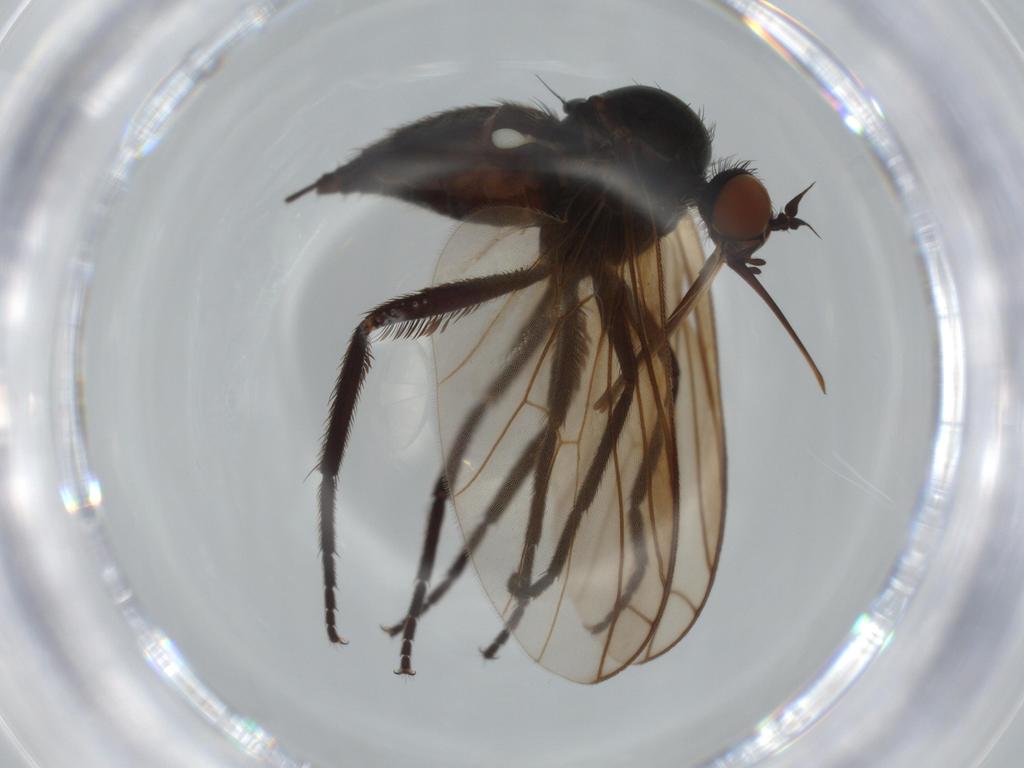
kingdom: Animalia
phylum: Arthropoda
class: Insecta
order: Diptera
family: Empididae
